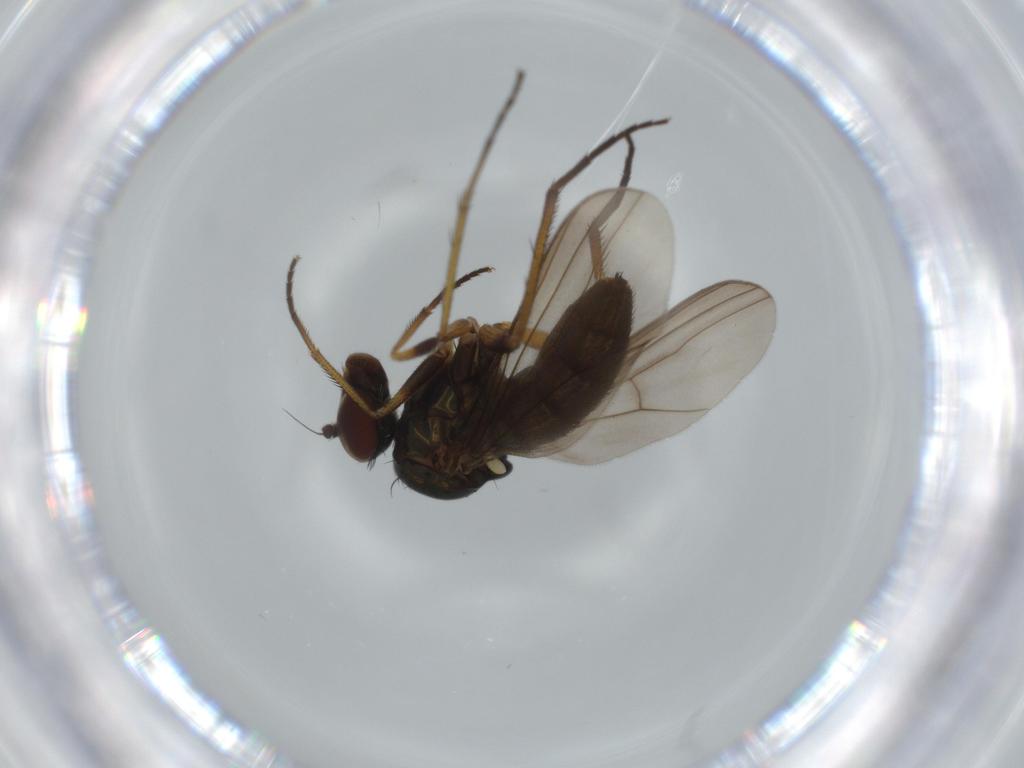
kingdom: Animalia
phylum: Arthropoda
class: Insecta
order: Diptera
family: Dolichopodidae
